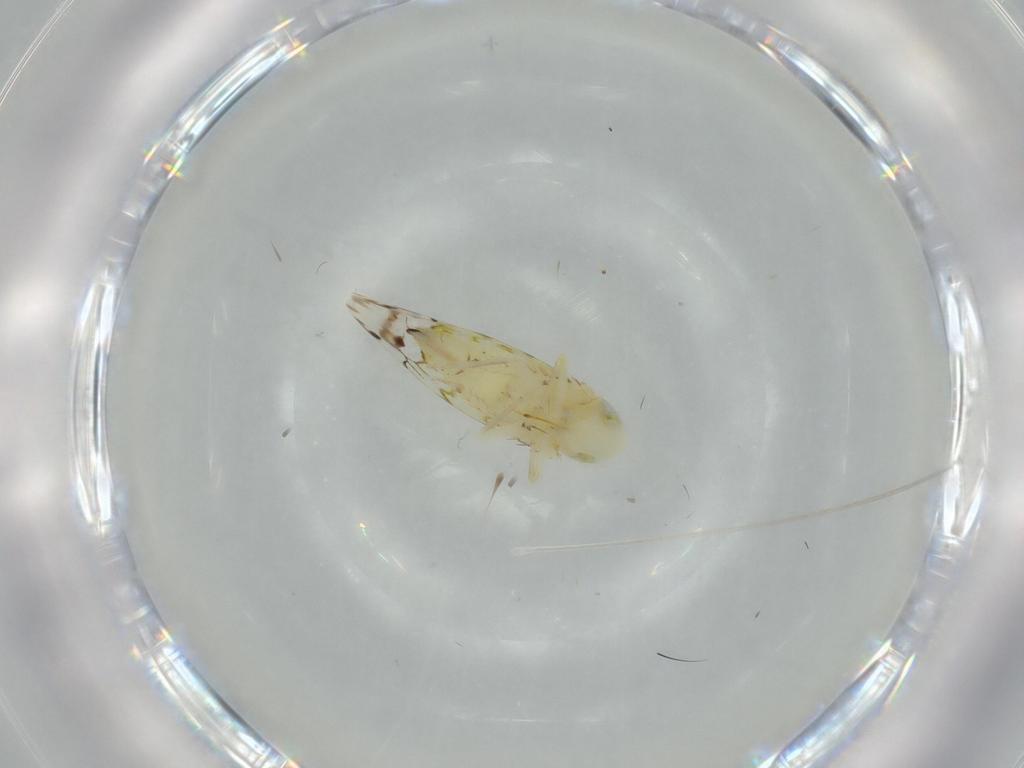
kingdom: Animalia
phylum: Arthropoda
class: Insecta
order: Hemiptera
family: Cicadellidae
